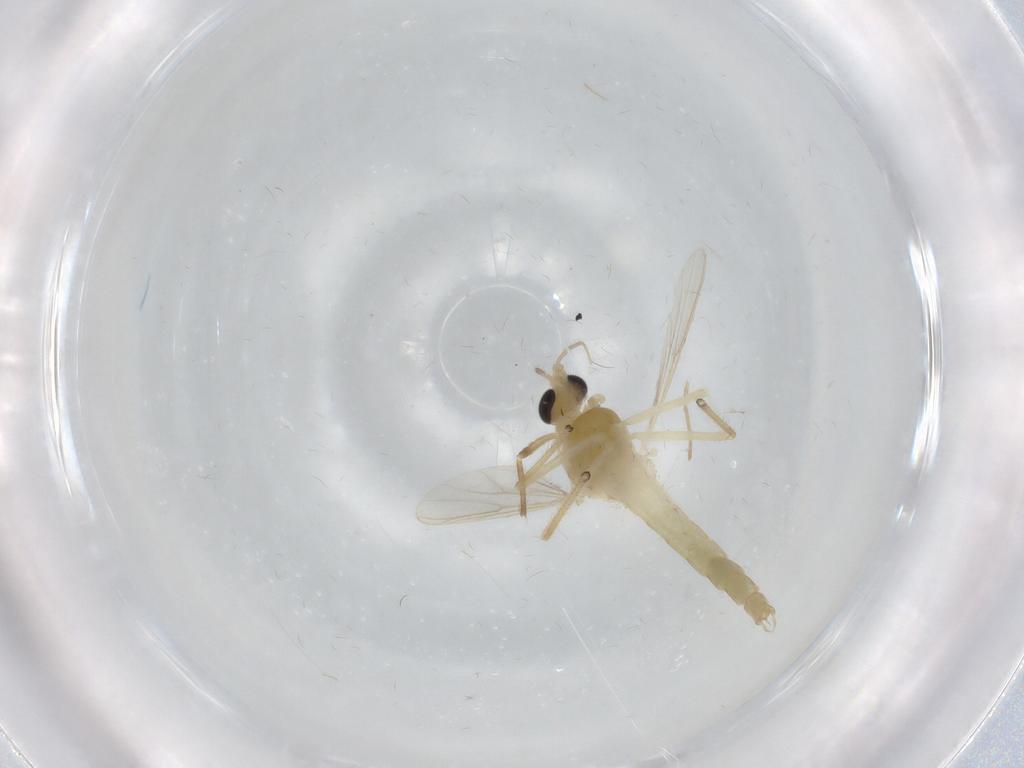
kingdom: Animalia
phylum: Arthropoda
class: Insecta
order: Diptera
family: Chironomidae
